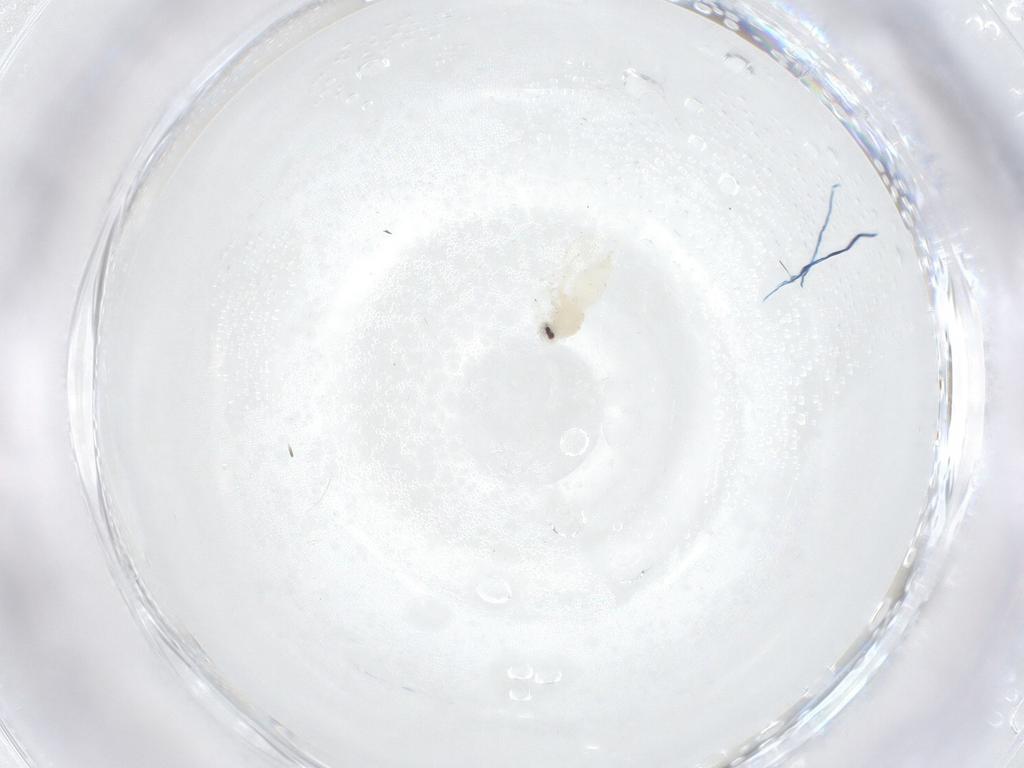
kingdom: Animalia
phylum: Arthropoda
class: Insecta
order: Hemiptera
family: Aleyrodidae
